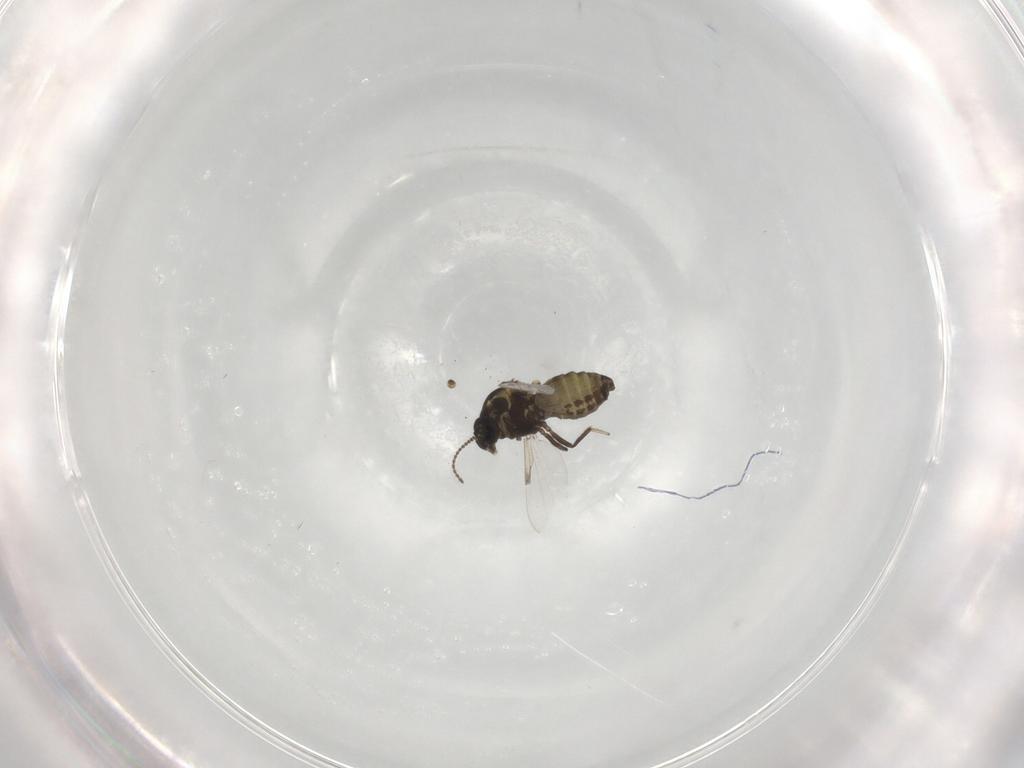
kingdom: Animalia
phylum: Arthropoda
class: Insecta
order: Diptera
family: Ceratopogonidae
